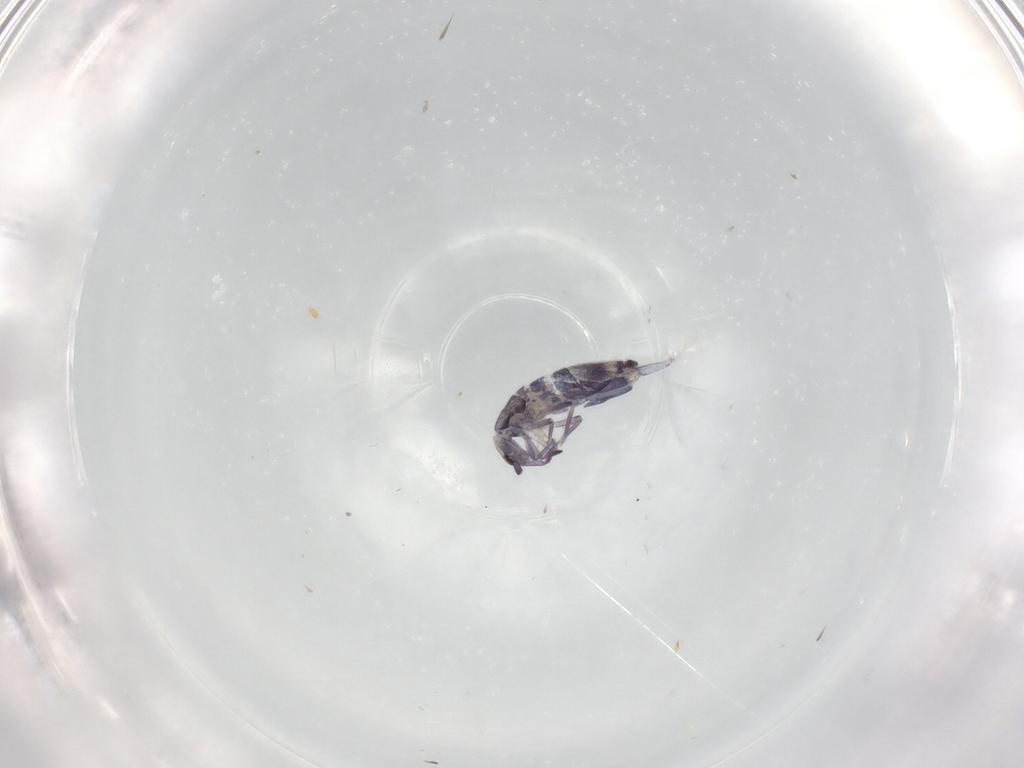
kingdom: Animalia
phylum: Arthropoda
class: Collembola
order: Entomobryomorpha
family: Entomobryidae
